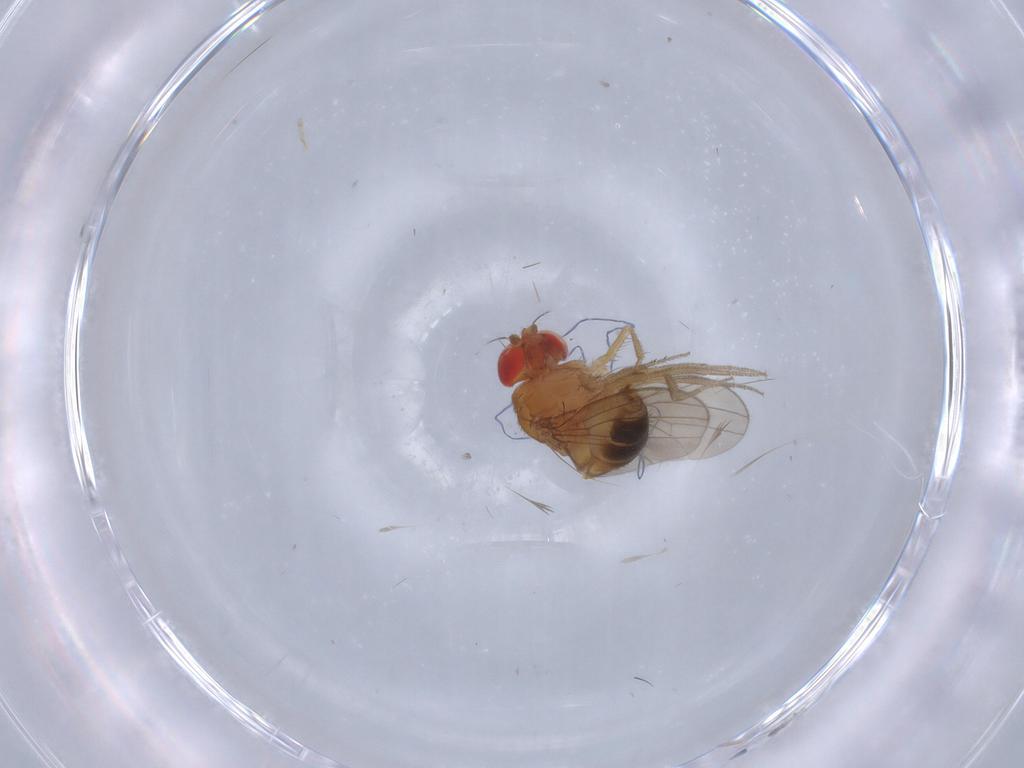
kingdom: Animalia
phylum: Arthropoda
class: Insecta
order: Diptera
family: Drosophilidae
